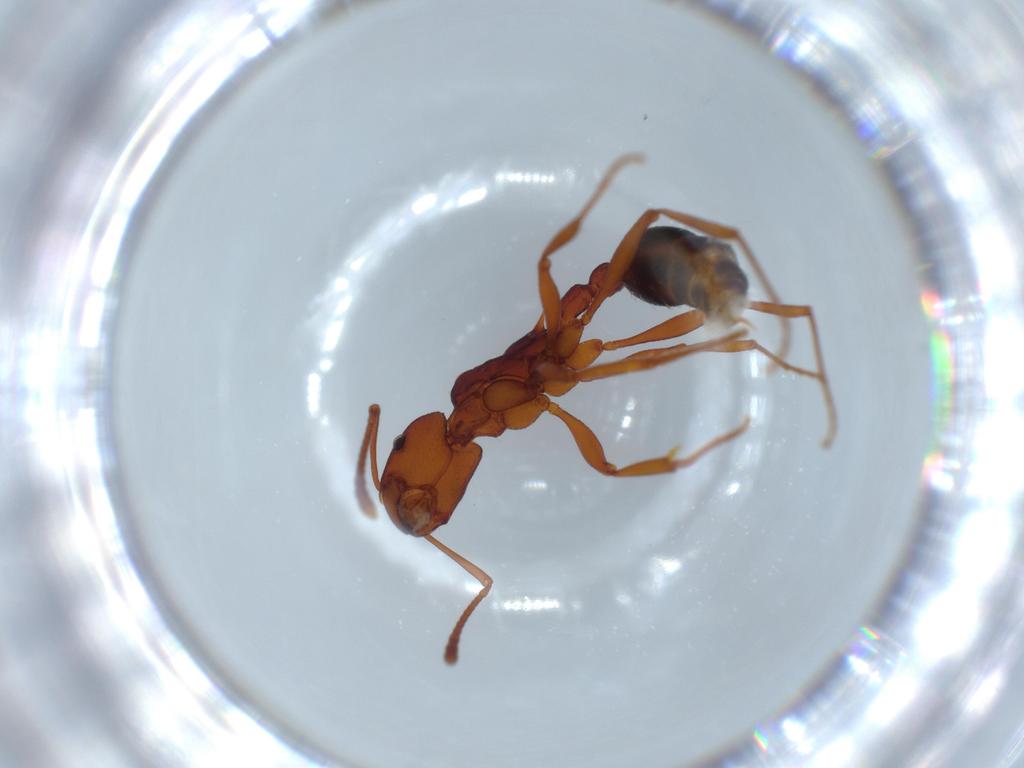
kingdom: Animalia
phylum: Arthropoda
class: Insecta
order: Hymenoptera
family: Formicidae
